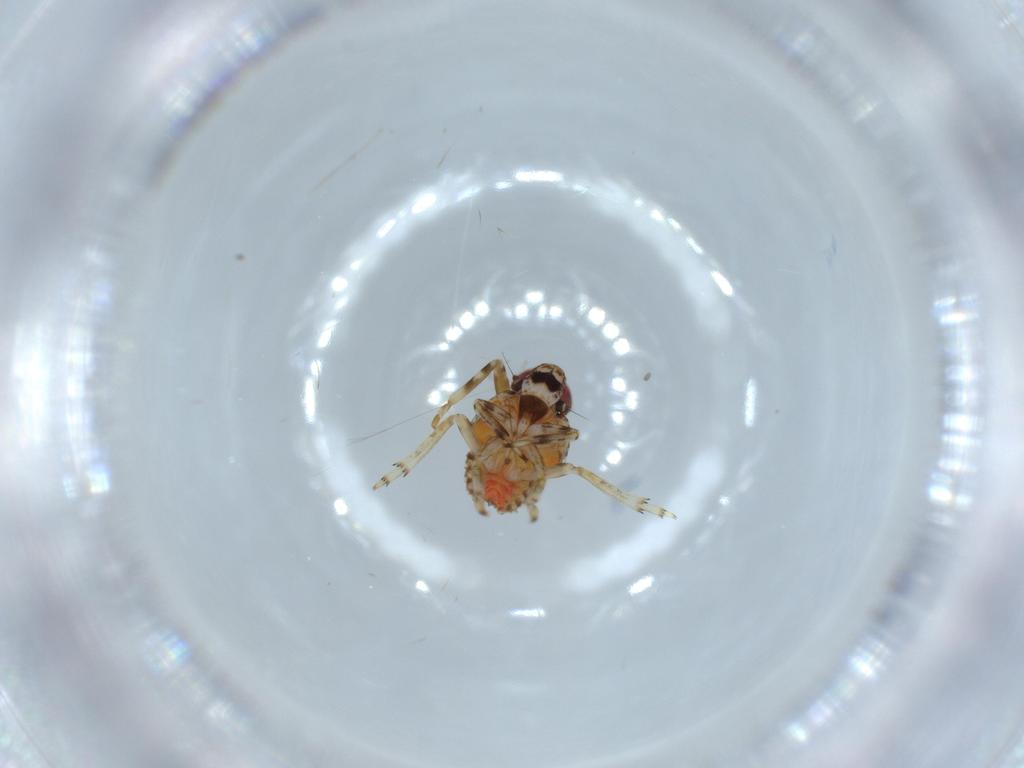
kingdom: Animalia
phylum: Arthropoda
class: Insecta
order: Hemiptera
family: Issidae
